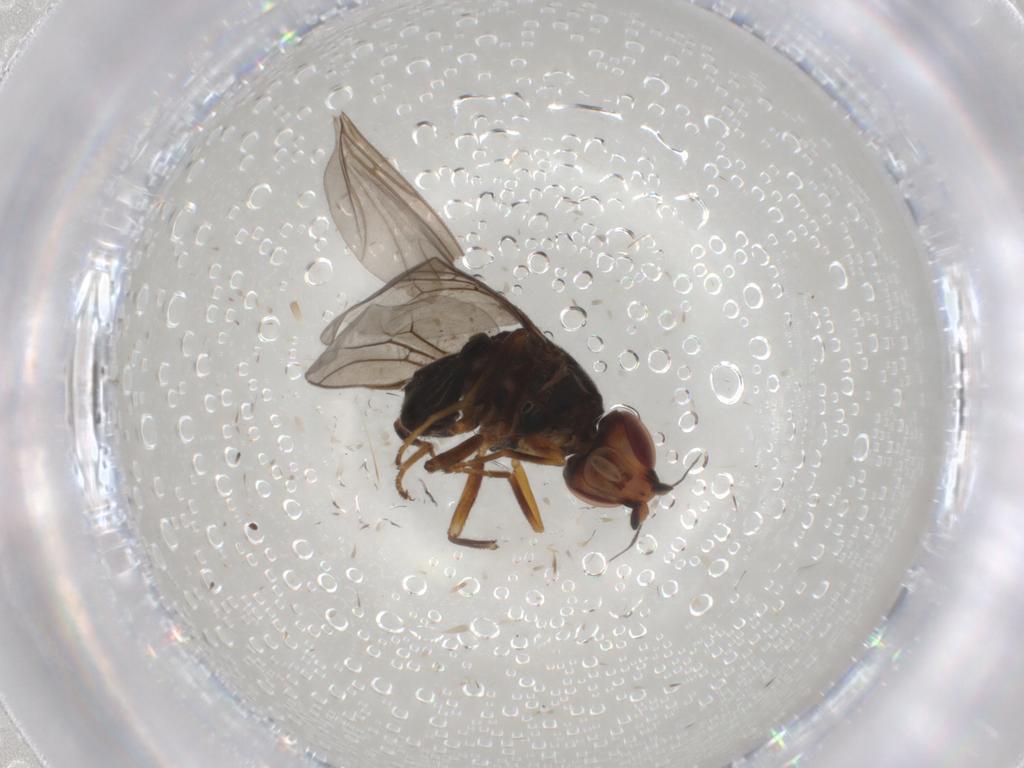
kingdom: Animalia
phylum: Arthropoda
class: Insecta
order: Diptera
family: Chloropidae
